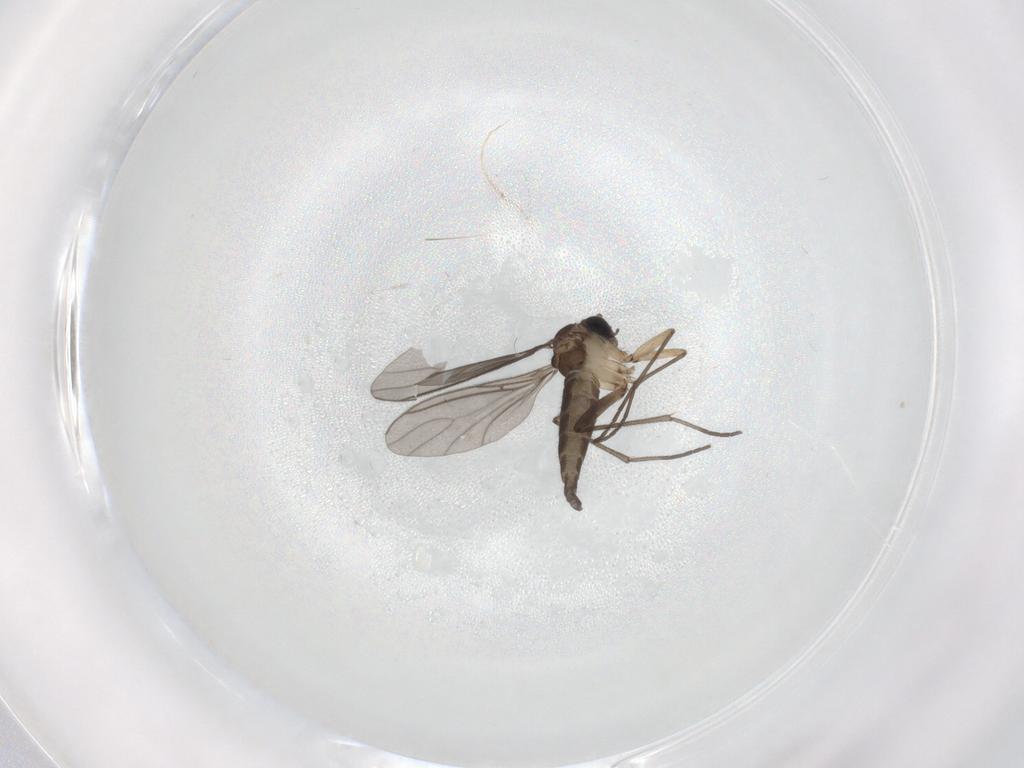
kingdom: Animalia
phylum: Arthropoda
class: Insecta
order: Diptera
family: Sciaridae
